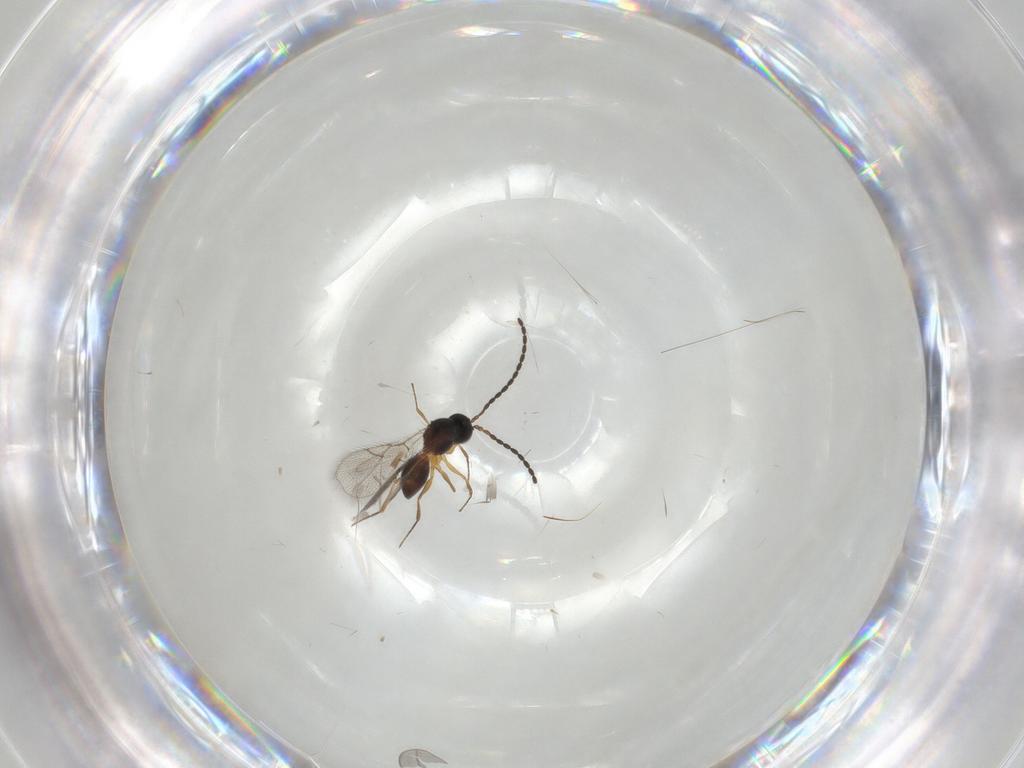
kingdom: Animalia
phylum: Arthropoda
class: Insecta
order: Hymenoptera
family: Figitidae
